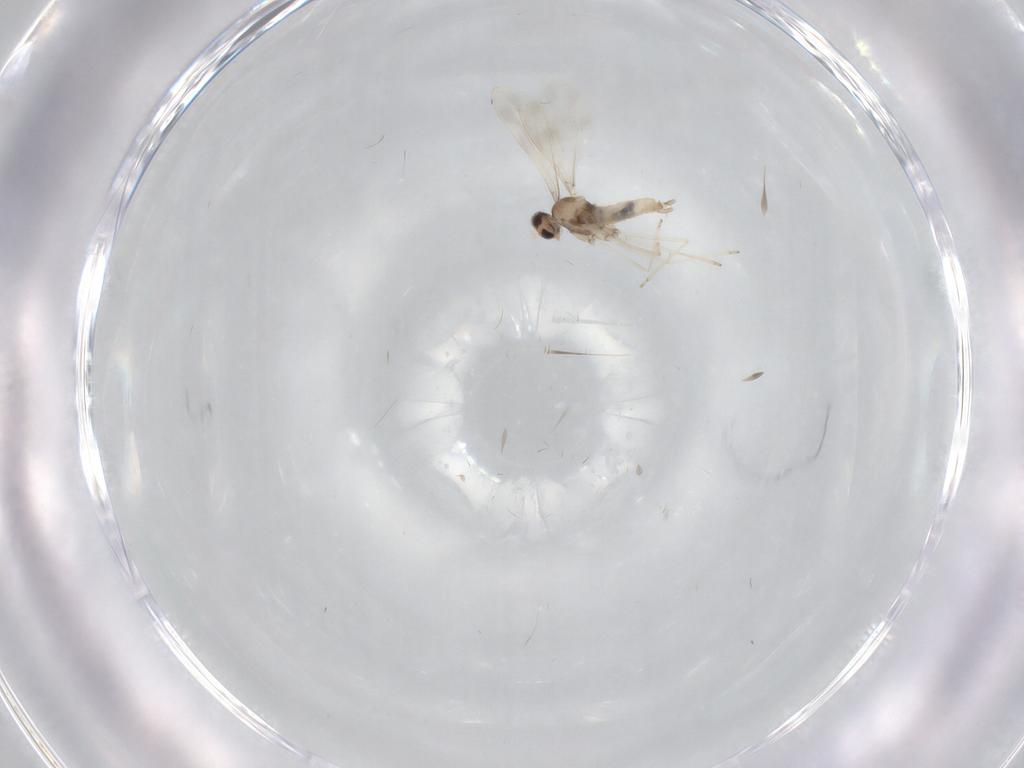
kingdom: Animalia
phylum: Arthropoda
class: Insecta
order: Diptera
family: Cecidomyiidae
